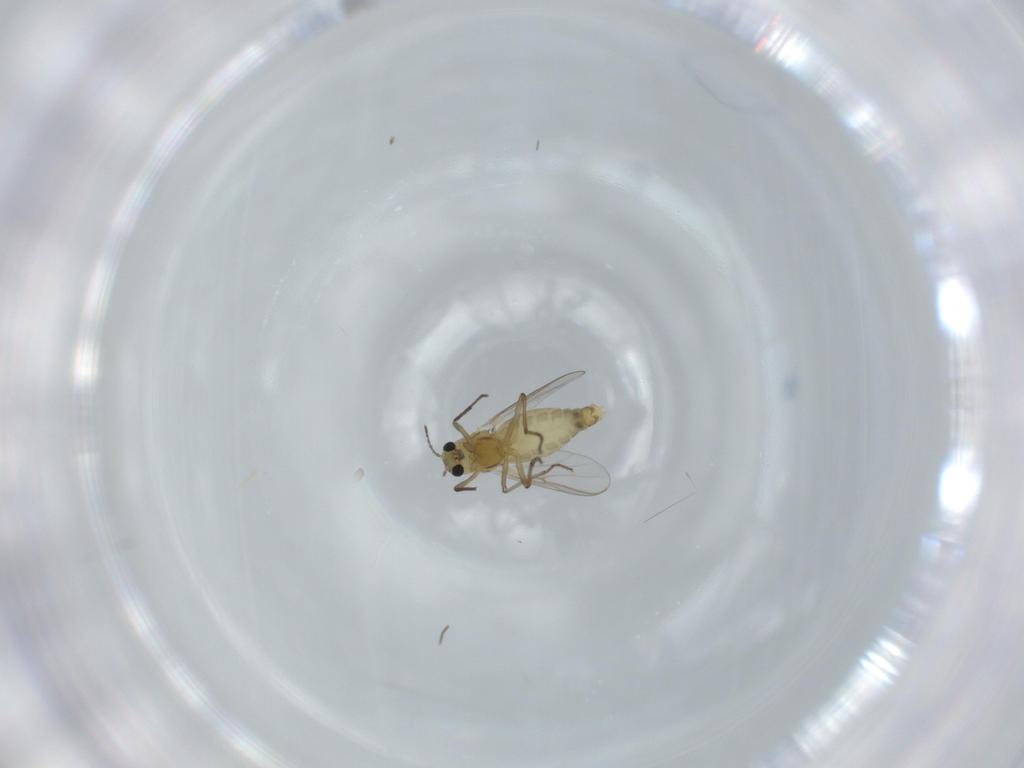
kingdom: Animalia
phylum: Arthropoda
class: Insecta
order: Diptera
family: Chironomidae
